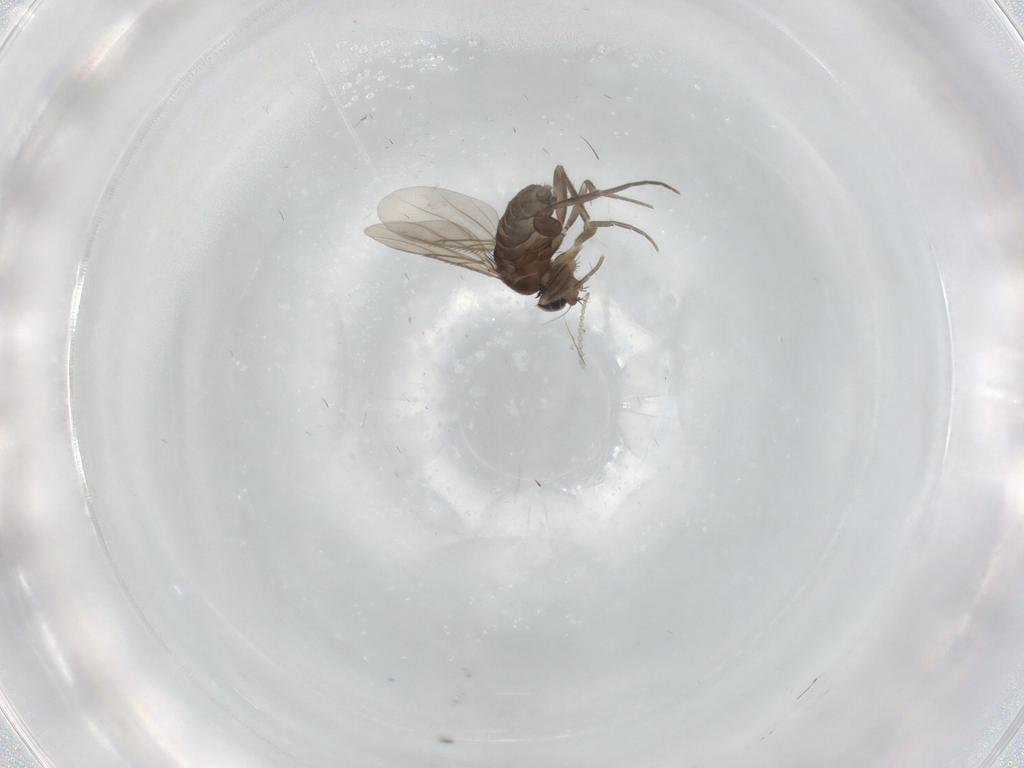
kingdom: Animalia
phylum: Arthropoda
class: Insecta
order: Diptera
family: Phoridae
